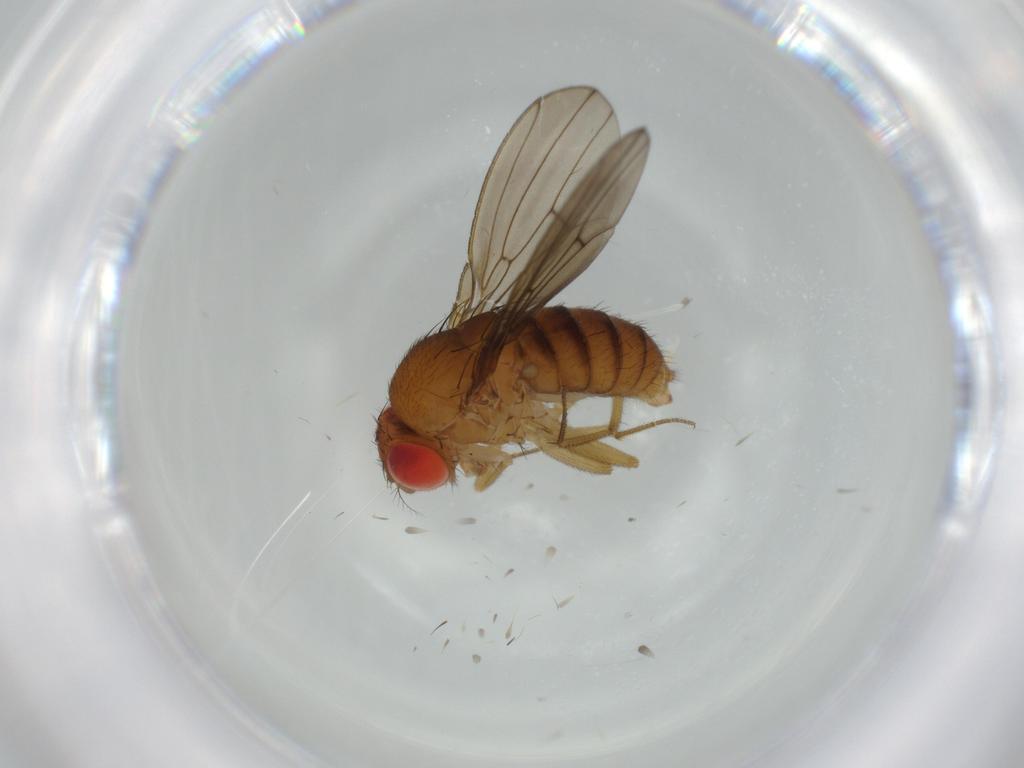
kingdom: Animalia
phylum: Arthropoda
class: Insecta
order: Diptera
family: Drosophilidae
